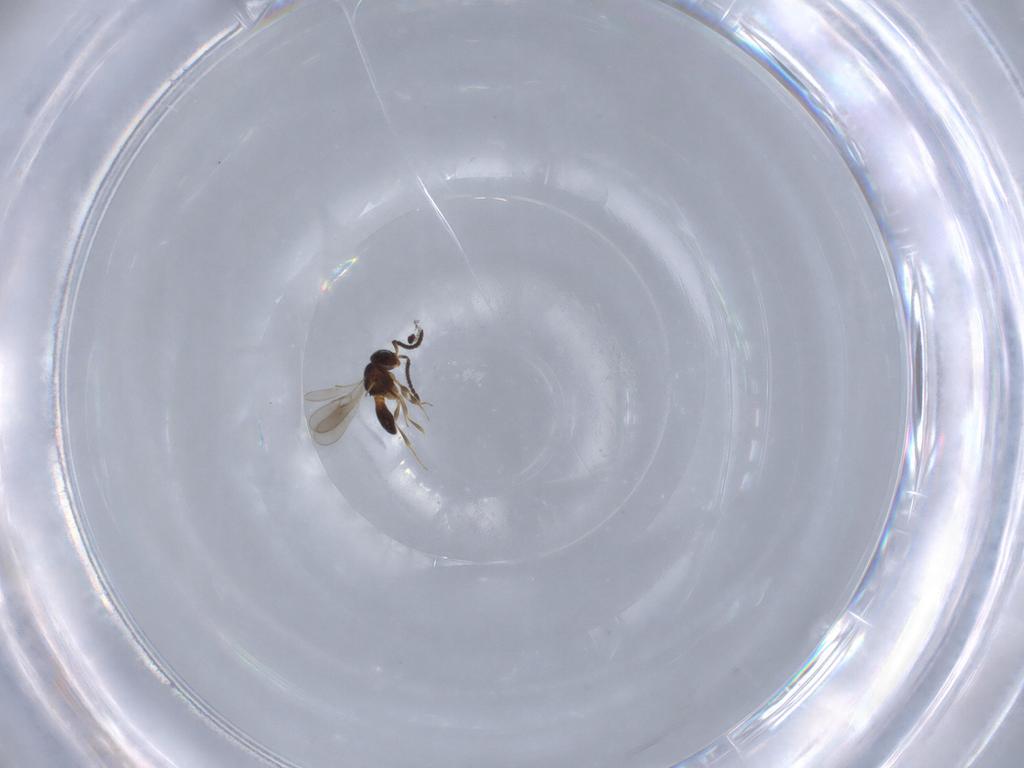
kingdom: Animalia
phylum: Arthropoda
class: Insecta
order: Hymenoptera
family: Scelionidae
